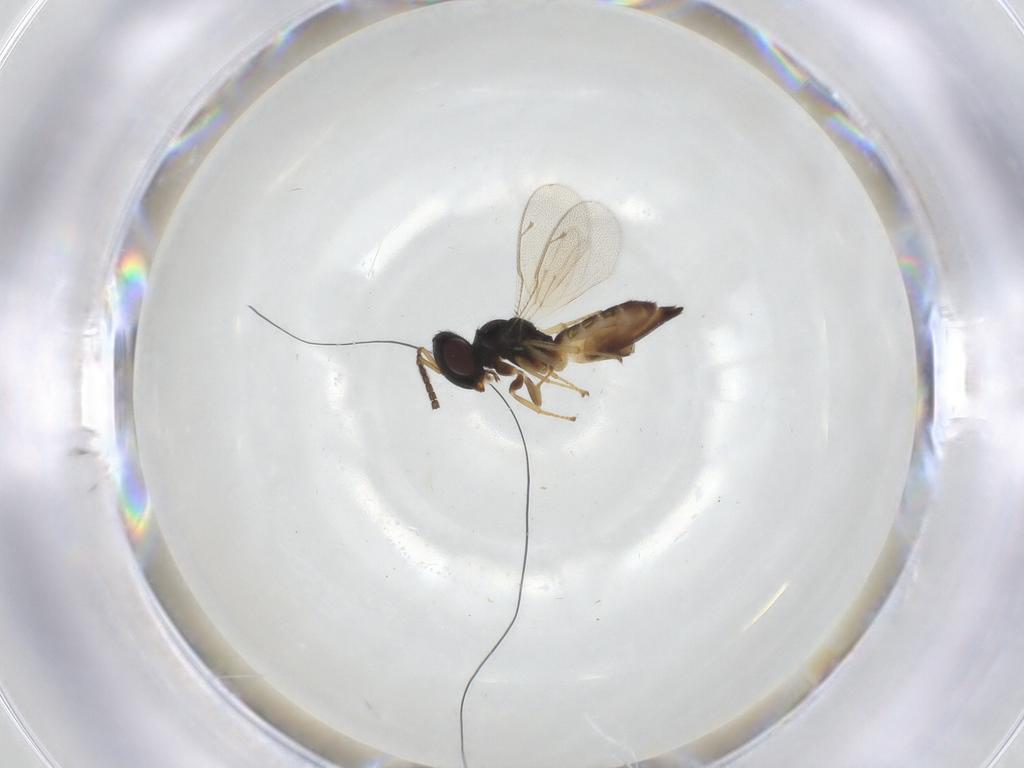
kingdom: Animalia
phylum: Arthropoda
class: Insecta
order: Hymenoptera
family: Pteromalidae
